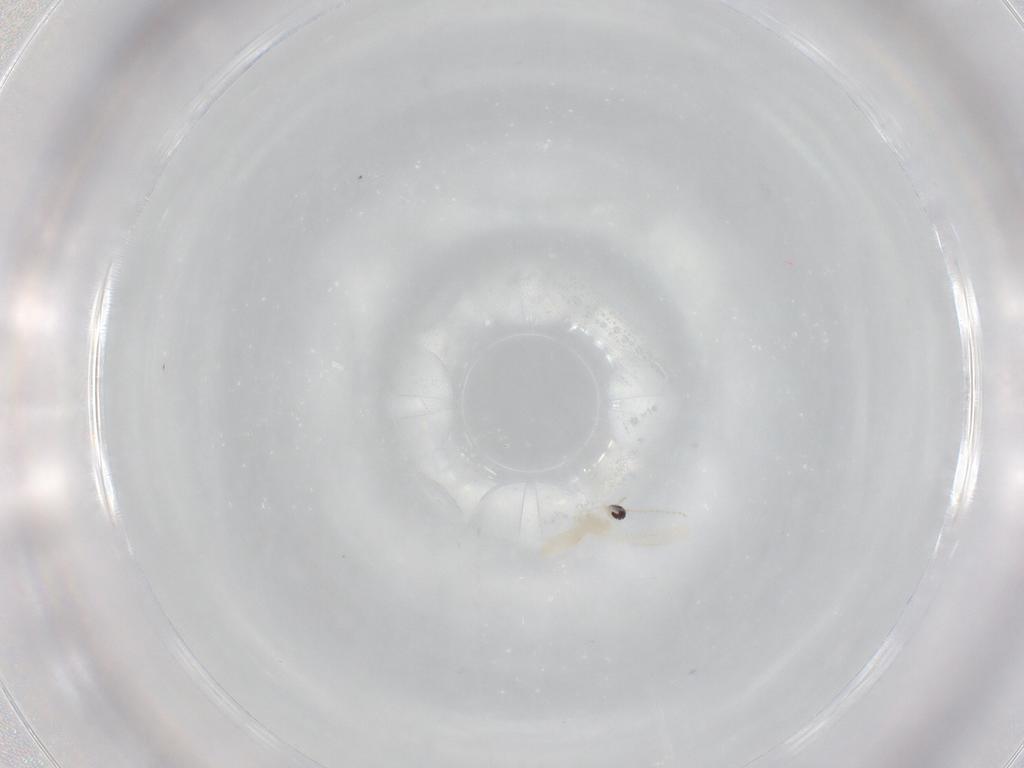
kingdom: Animalia
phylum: Arthropoda
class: Insecta
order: Diptera
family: Cecidomyiidae
